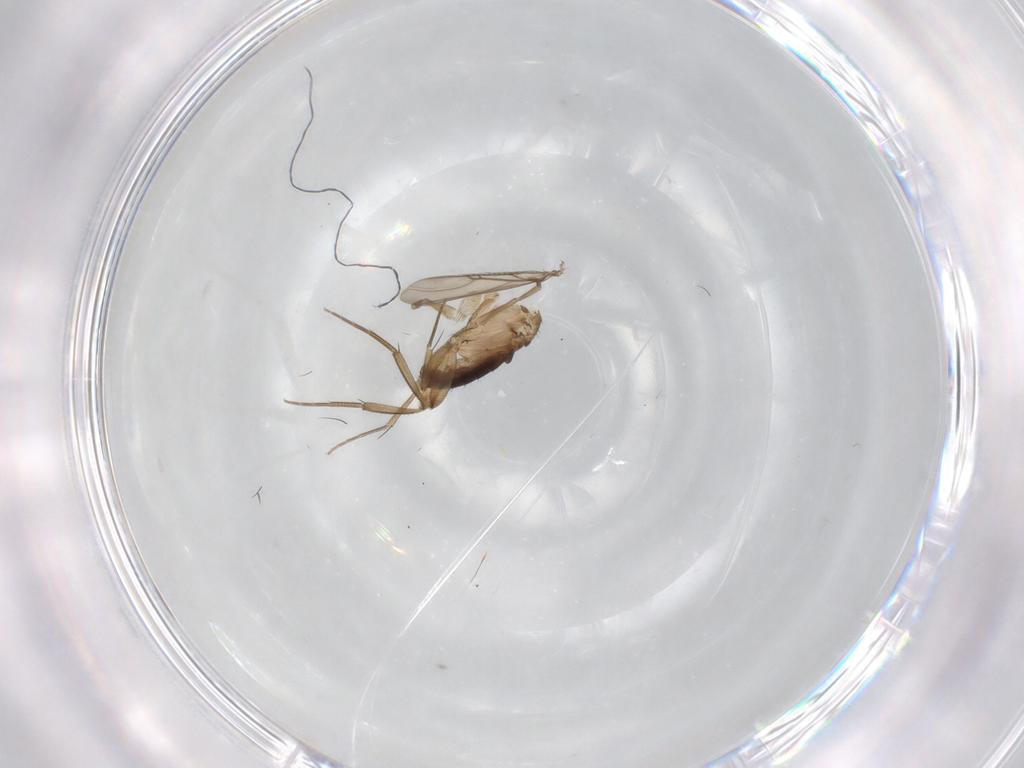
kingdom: Animalia
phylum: Arthropoda
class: Insecta
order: Diptera
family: Phoridae
